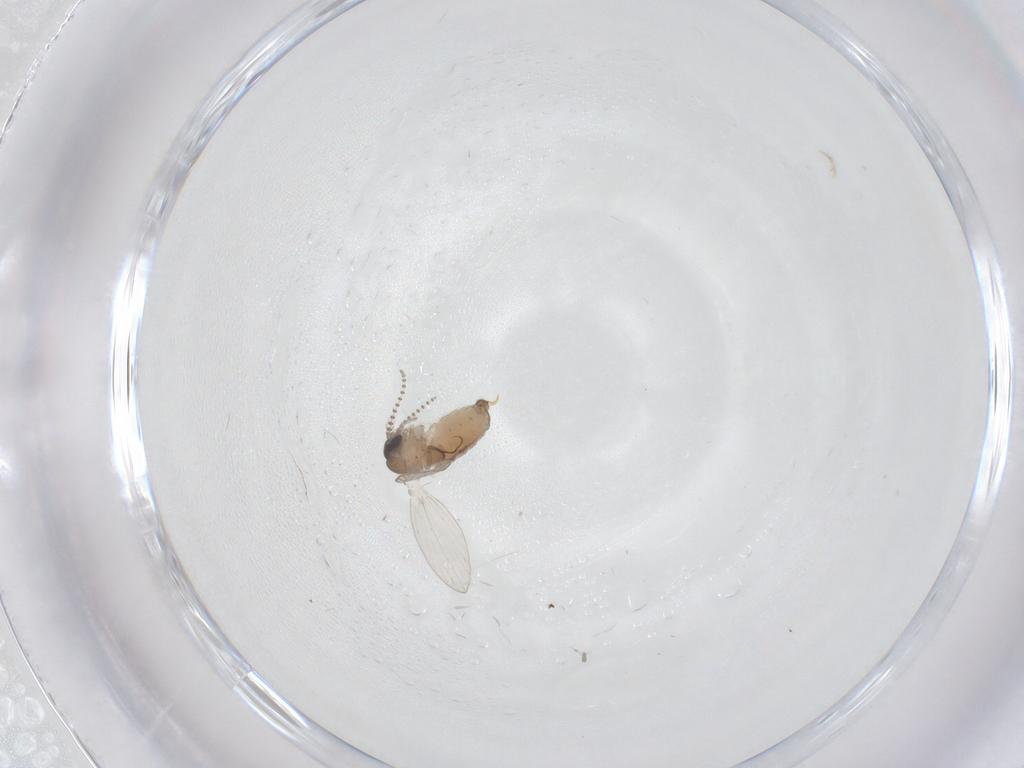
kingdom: Animalia
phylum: Arthropoda
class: Insecta
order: Diptera
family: Psychodidae
